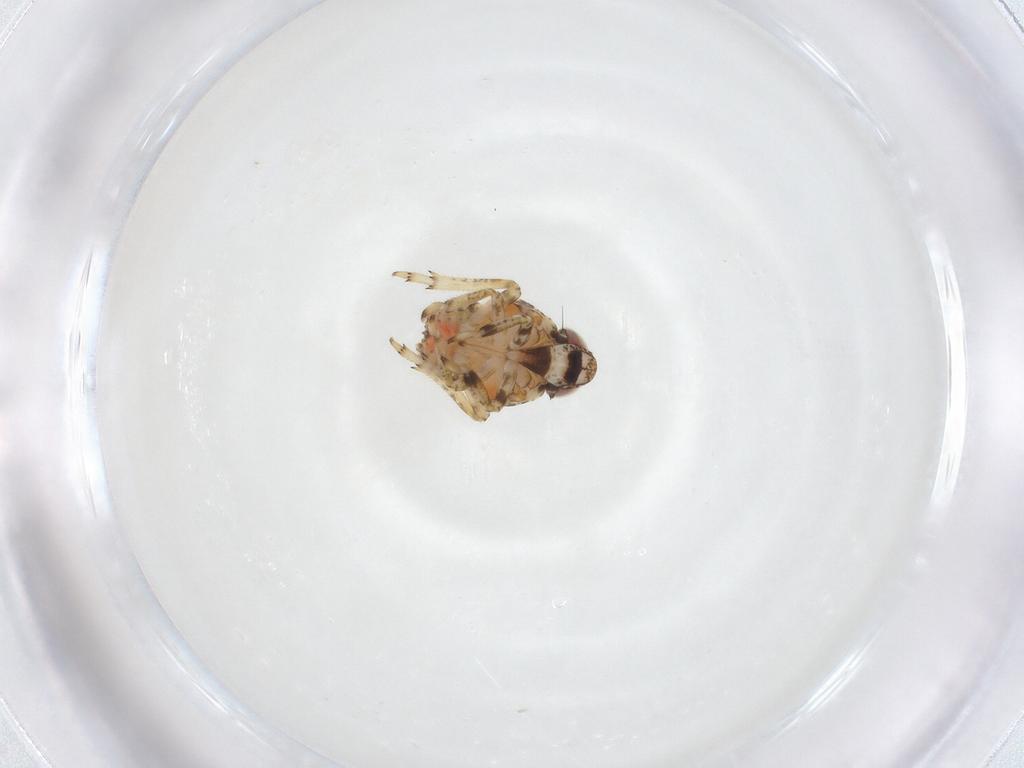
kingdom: Animalia
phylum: Arthropoda
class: Insecta
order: Hemiptera
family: Issidae
